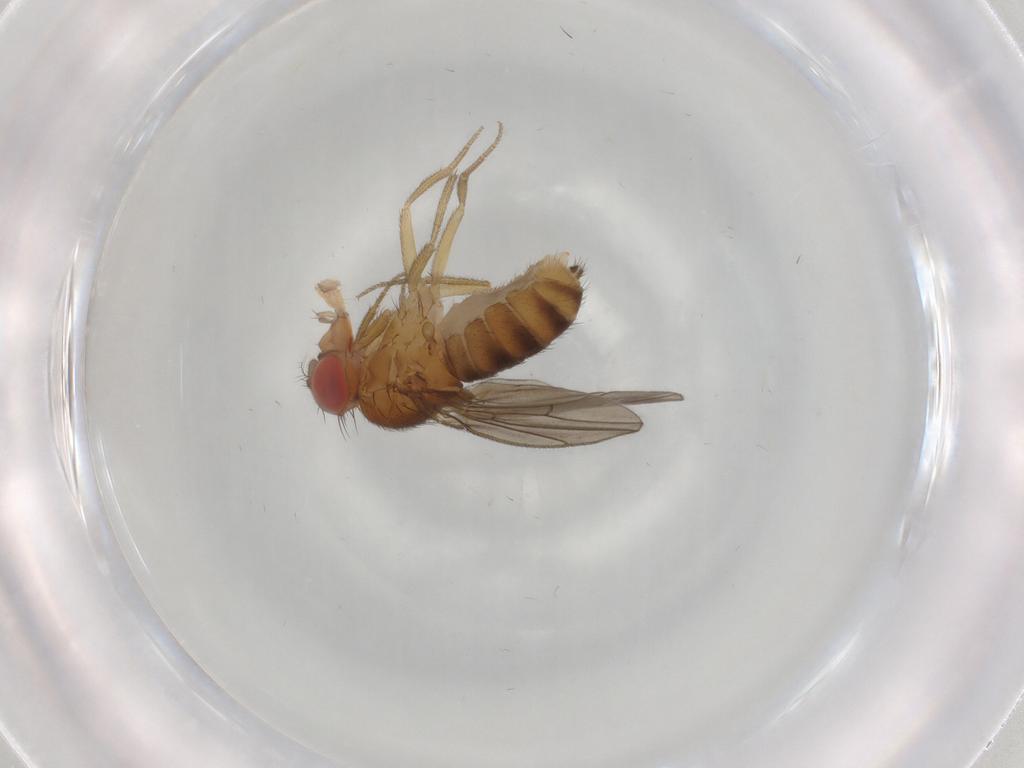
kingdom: Animalia
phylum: Arthropoda
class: Insecta
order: Diptera
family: Drosophilidae
